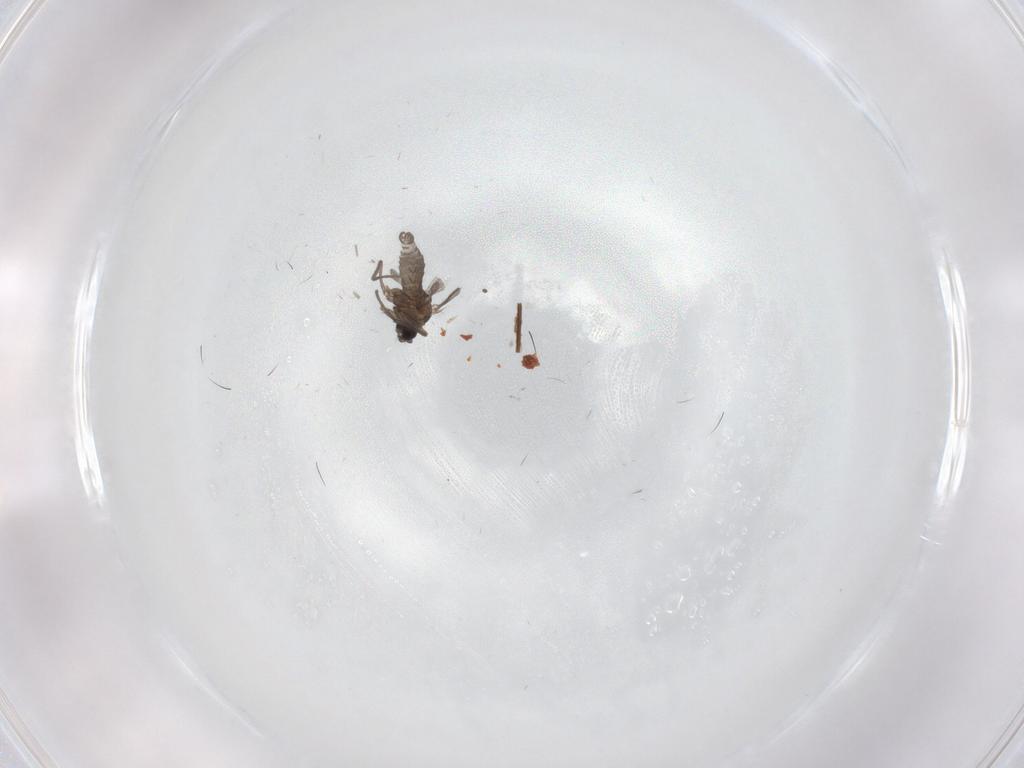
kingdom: Animalia
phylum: Arthropoda
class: Insecta
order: Diptera
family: Sciaridae
